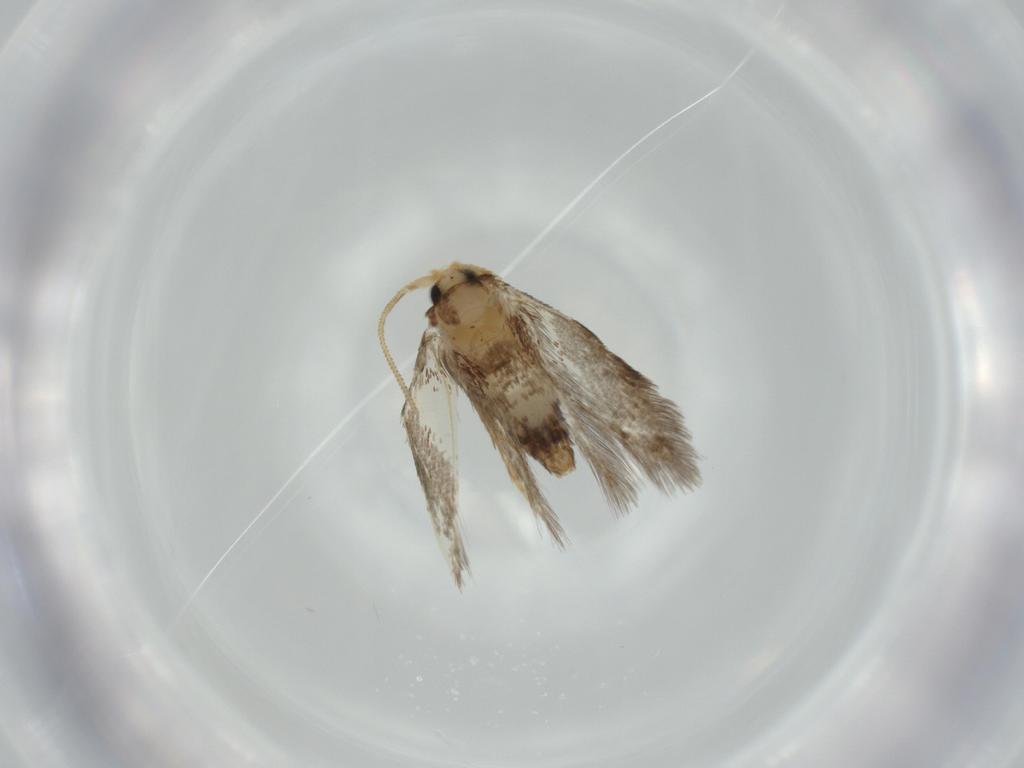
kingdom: Animalia
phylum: Arthropoda
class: Insecta
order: Lepidoptera
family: Nepticulidae
